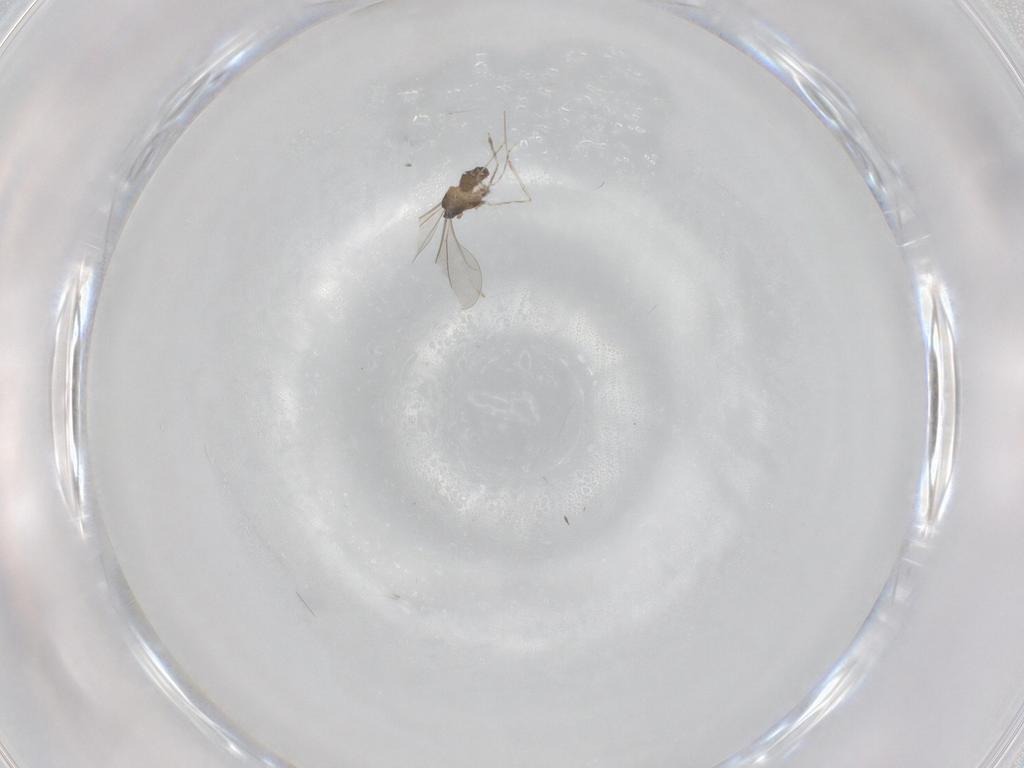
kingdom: Animalia
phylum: Arthropoda
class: Insecta
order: Diptera
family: Cecidomyiidae
